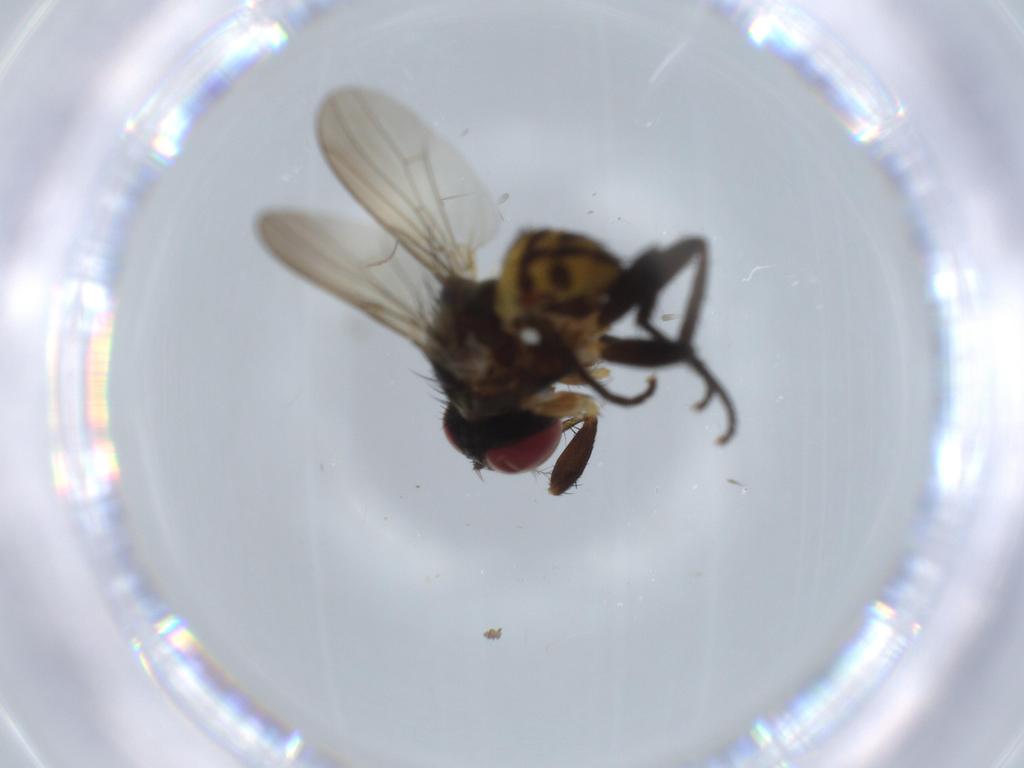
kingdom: Animalia
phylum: Arthropoda
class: Insecta
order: Diptera
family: Anthomyiidae
